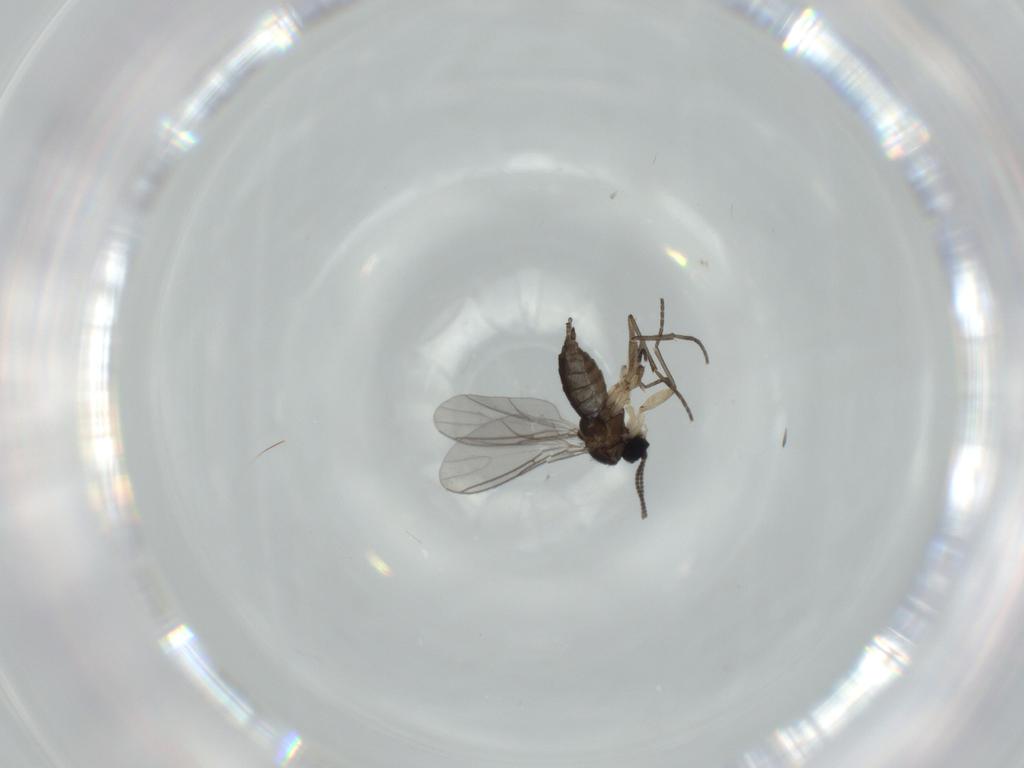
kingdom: Animalia
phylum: Arthropoda
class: Insecta
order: Diptera
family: Sciaridae
